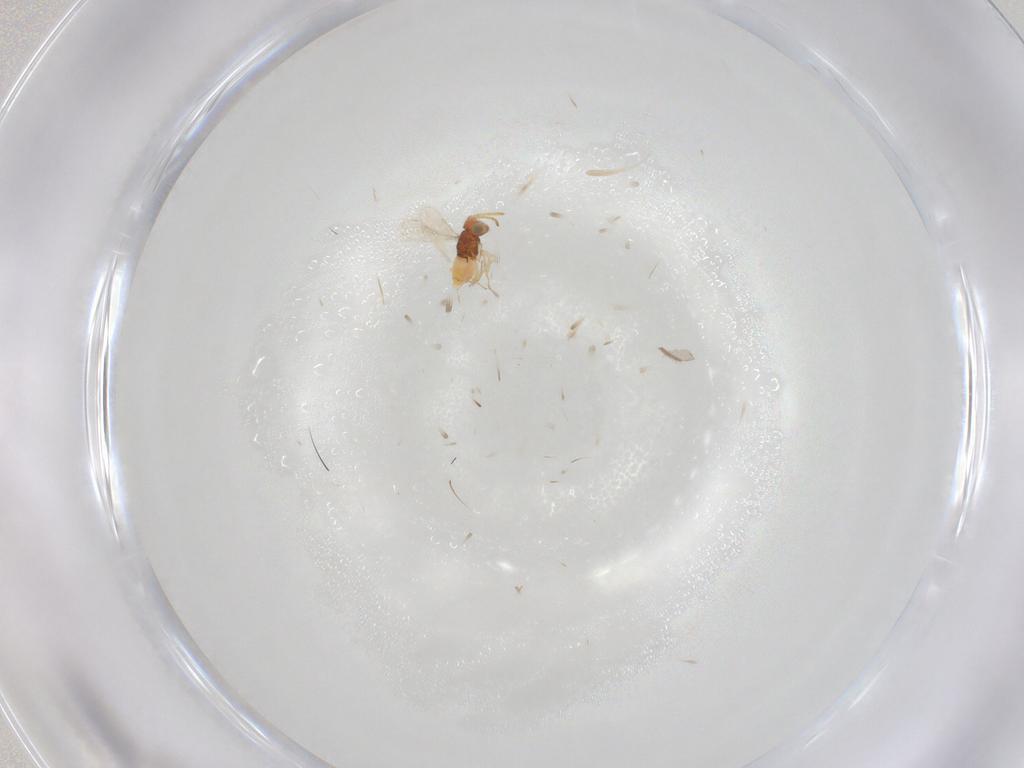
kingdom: Animalia
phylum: Arthropoda
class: Insecta
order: Hymenoptera
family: Aphelinidae
